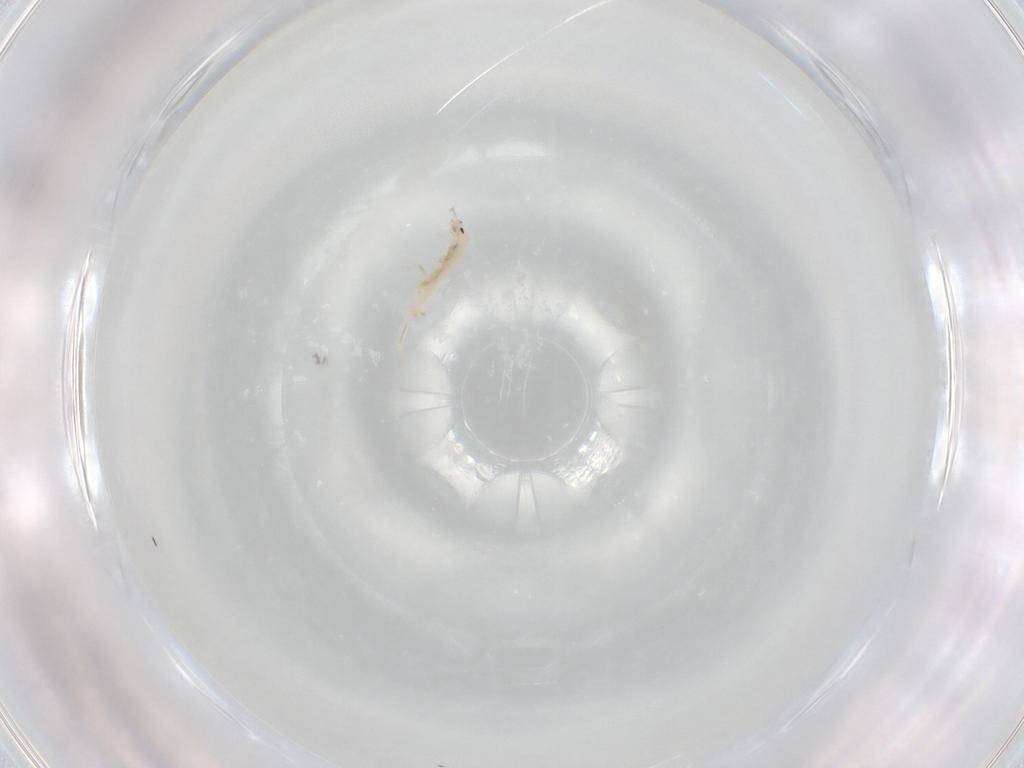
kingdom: Animalia
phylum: Arthropoda
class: Collembola
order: Entomobryomorpha
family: Entomobryidae
